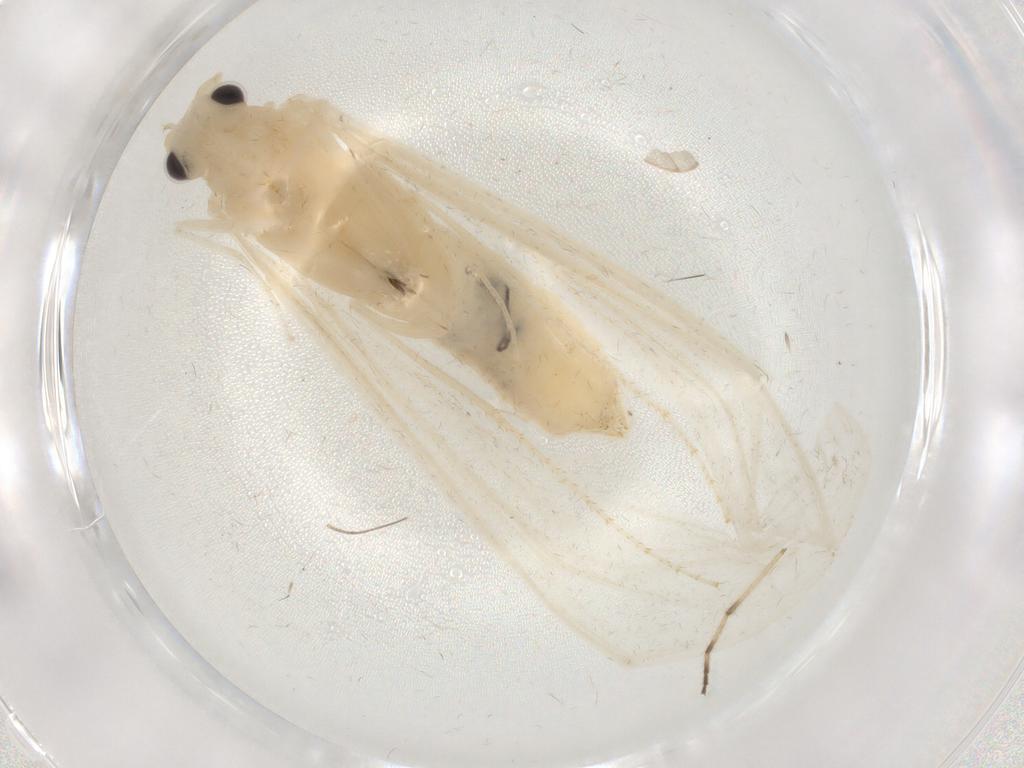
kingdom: Animalia
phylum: Arthropoda
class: Insecta
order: Trichoptera
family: Leptoceridae
